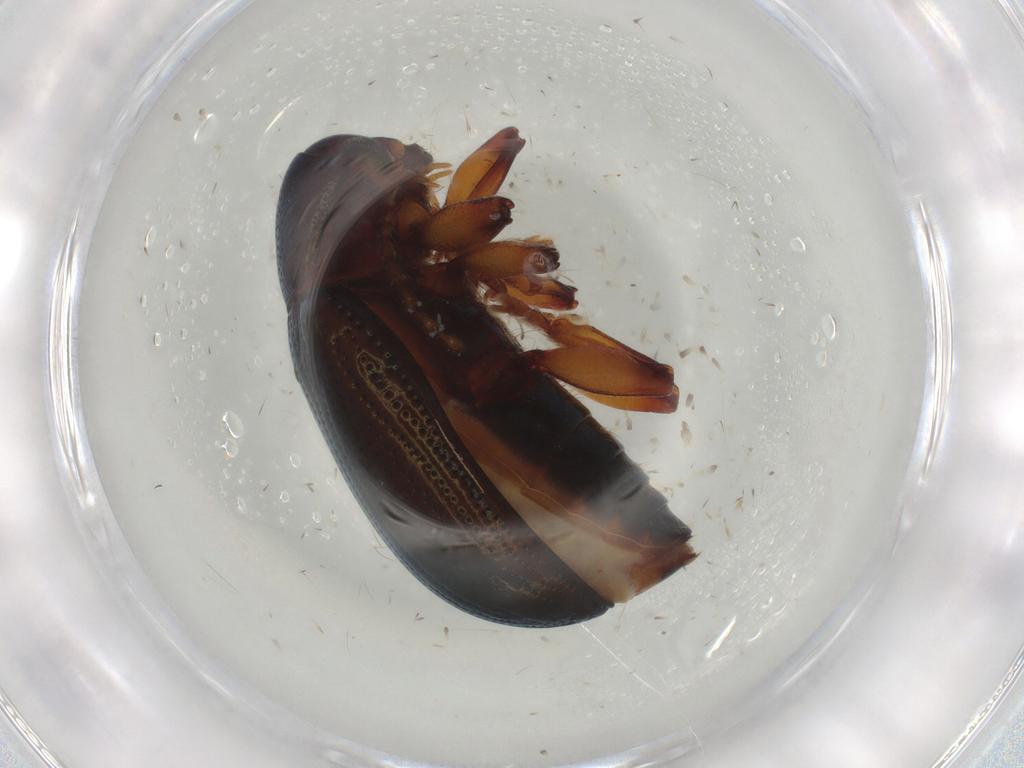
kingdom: Animalia
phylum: Arthropoda
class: Insecta
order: Coleoptera
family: Chrysomelidae
